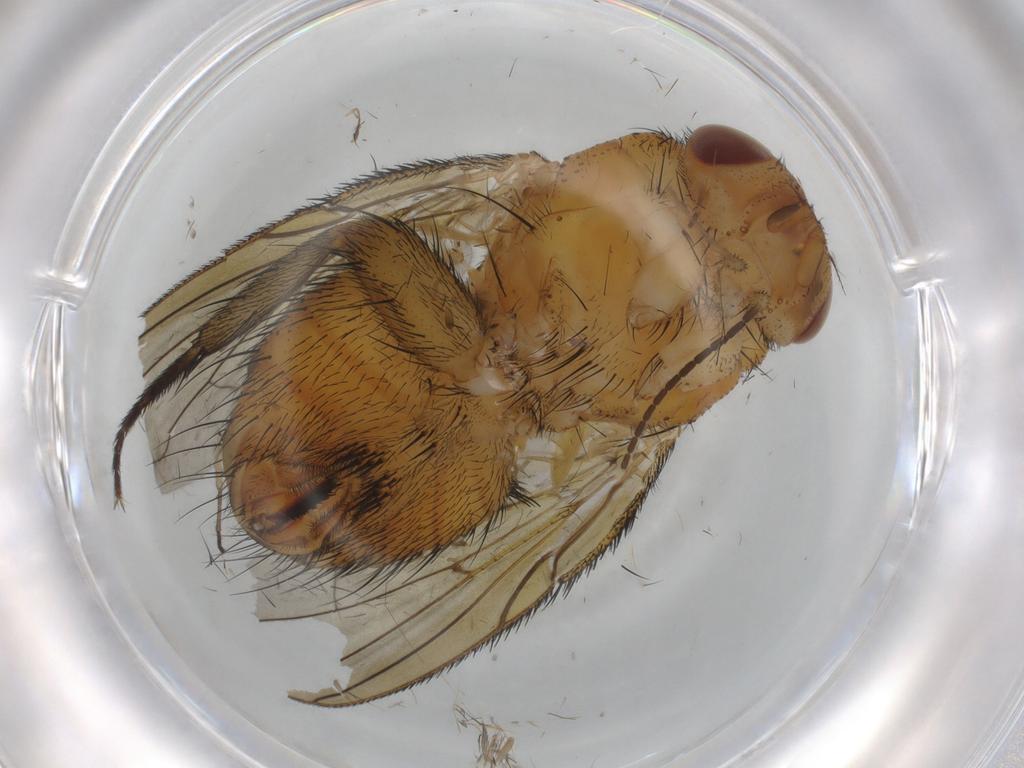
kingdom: Animalia
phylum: Arthropoda
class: Insecta
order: Diptera
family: Calliphoridae
